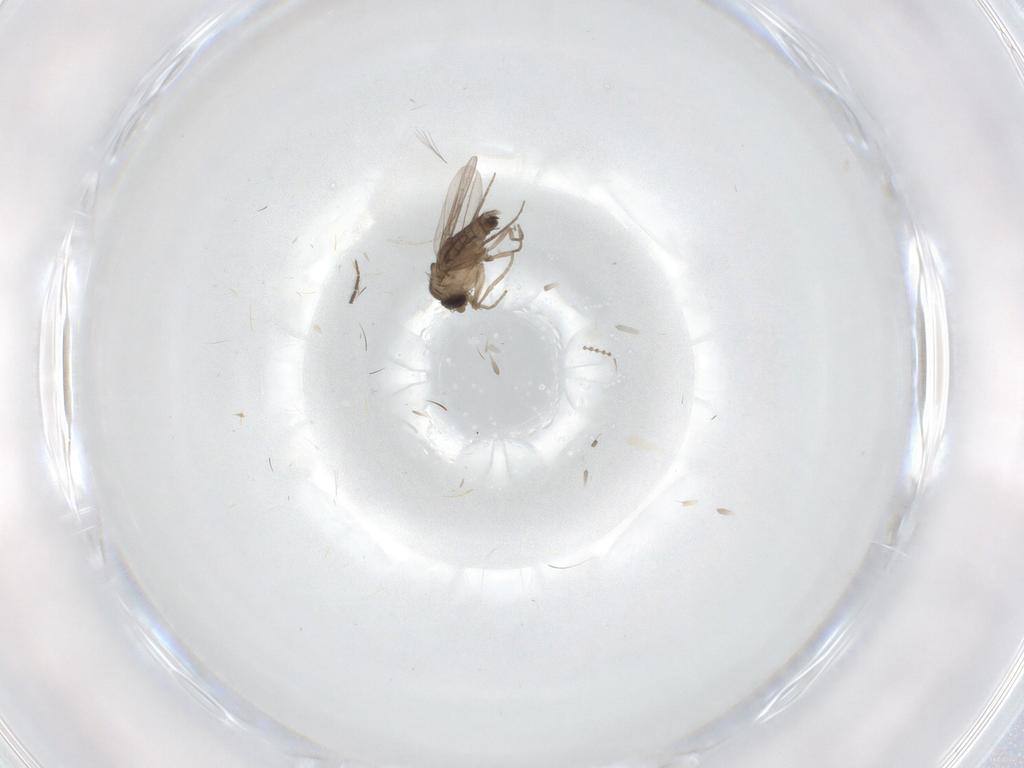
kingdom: Animalia
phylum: Arthropoda
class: Insecta
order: Diptera
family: Phoridae
